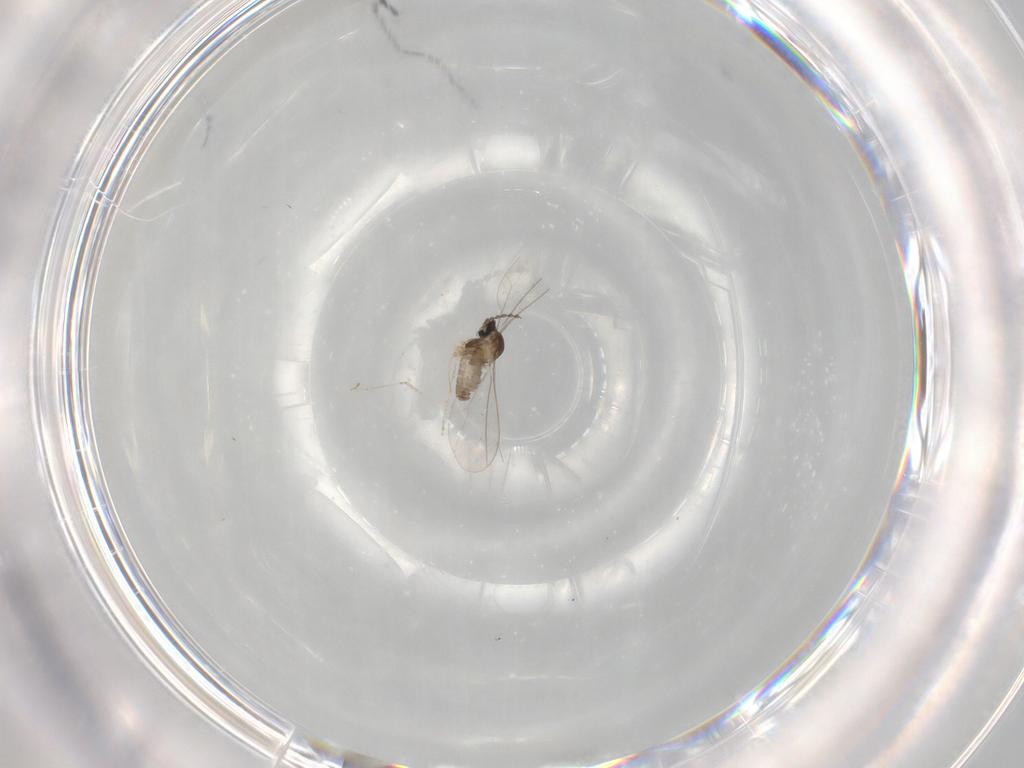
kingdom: Animalia
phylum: Arthropoda
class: Insecta
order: Diptera
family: Cecidomyiidae
